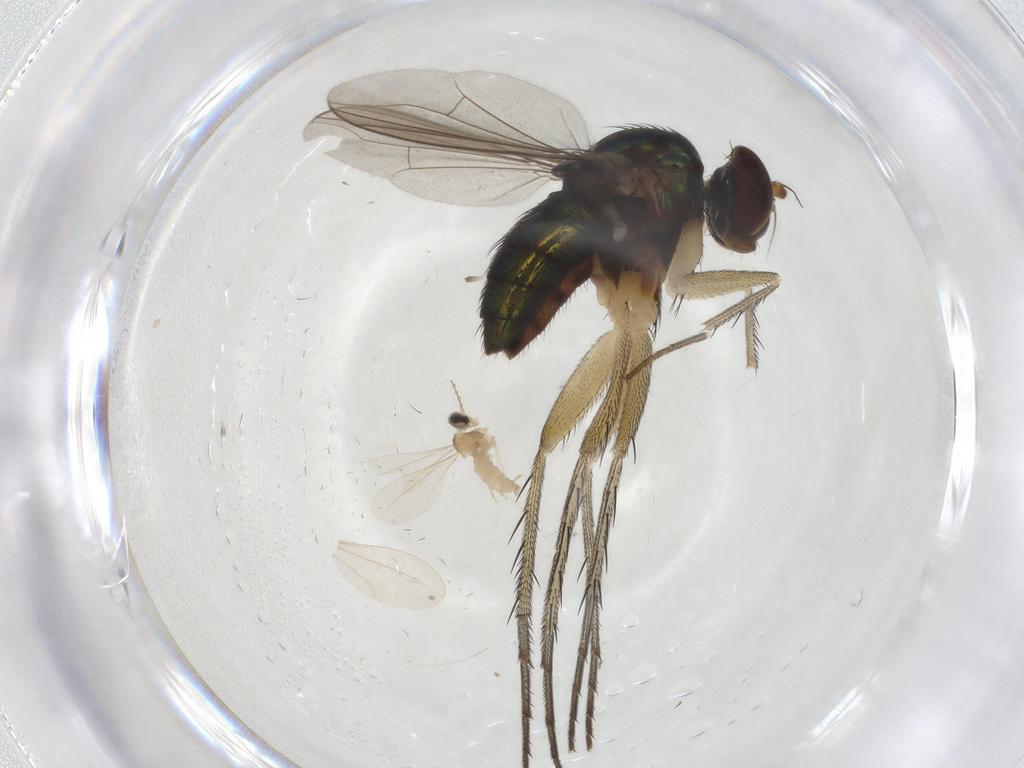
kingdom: Animalia
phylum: Arthropoda
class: Insecta
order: Diptera
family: Dolichopodidae
